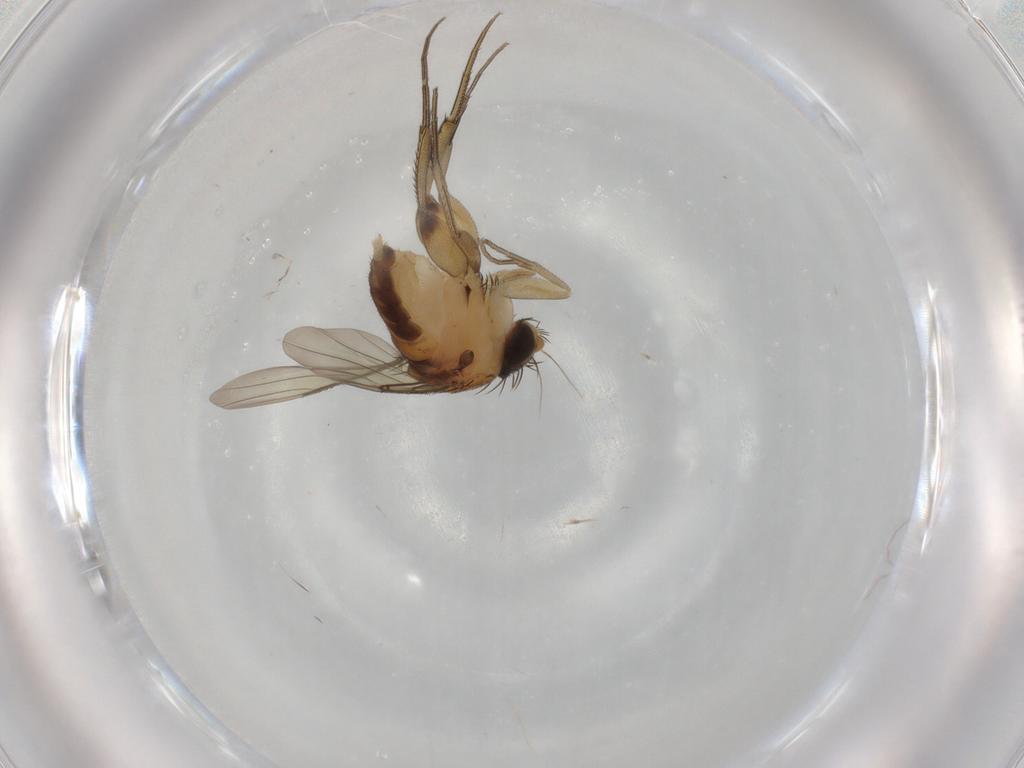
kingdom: Animalia
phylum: Arthropoda
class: Insecta
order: Diptera
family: Phoridae
